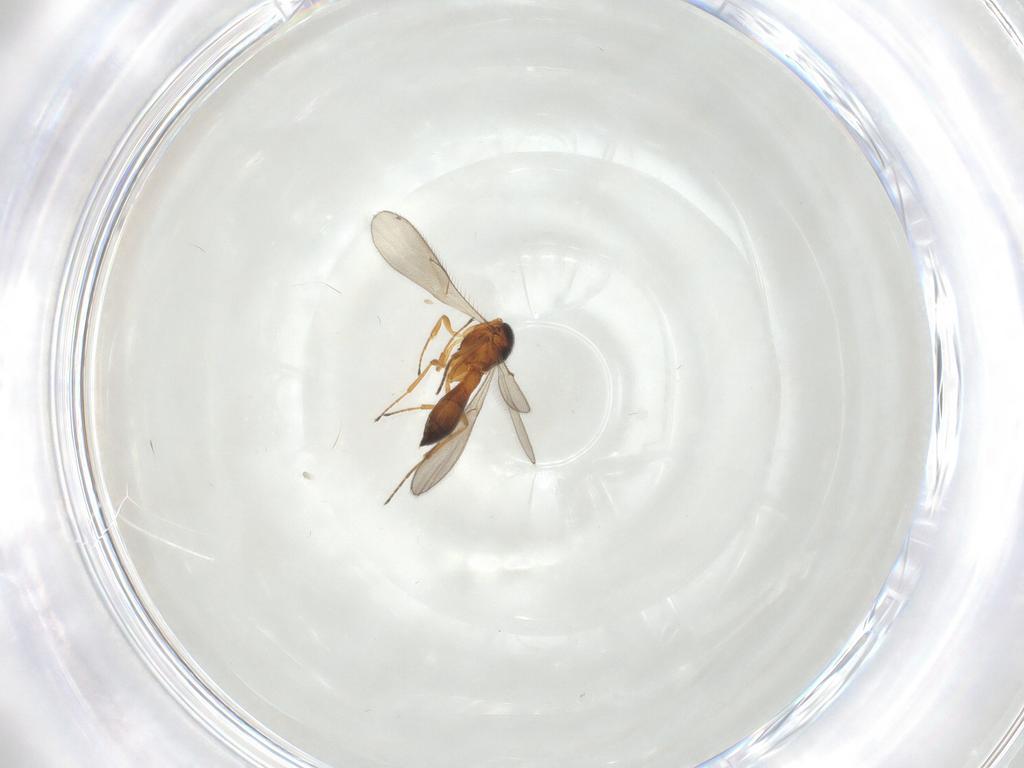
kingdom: Animalia
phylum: Arthropoda
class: Insecta
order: Hymenoptera
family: Scelionidae
